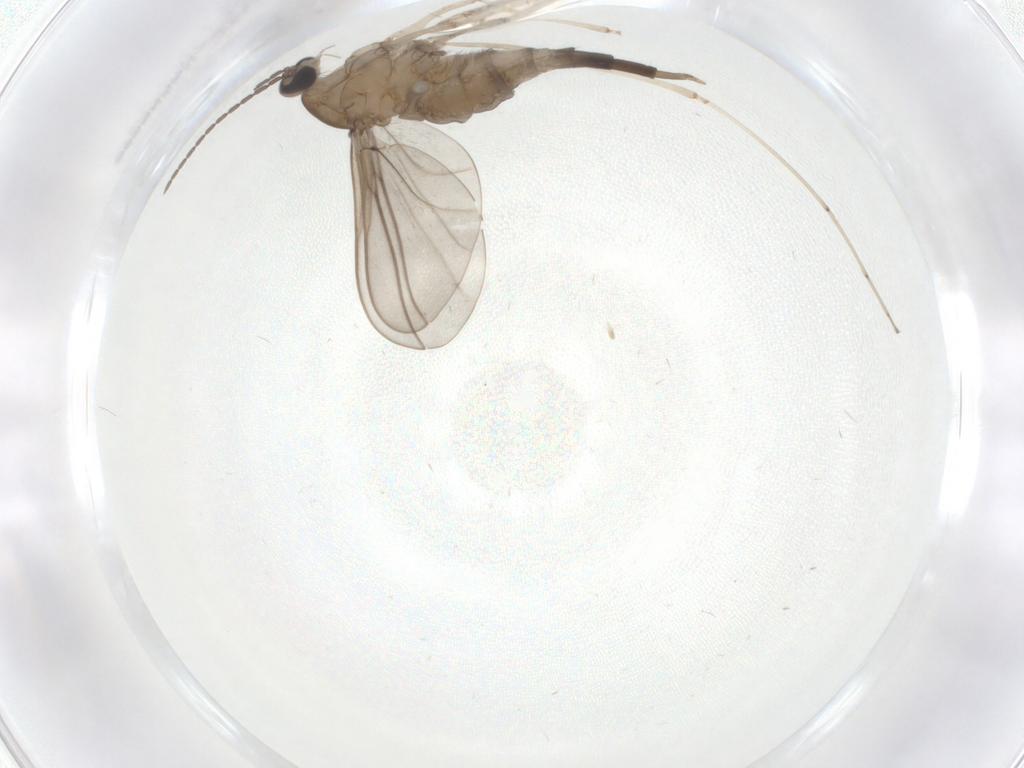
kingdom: Animalia
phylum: Arthropoda
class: Insecta
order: Diptera
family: Cecidomyiidae
